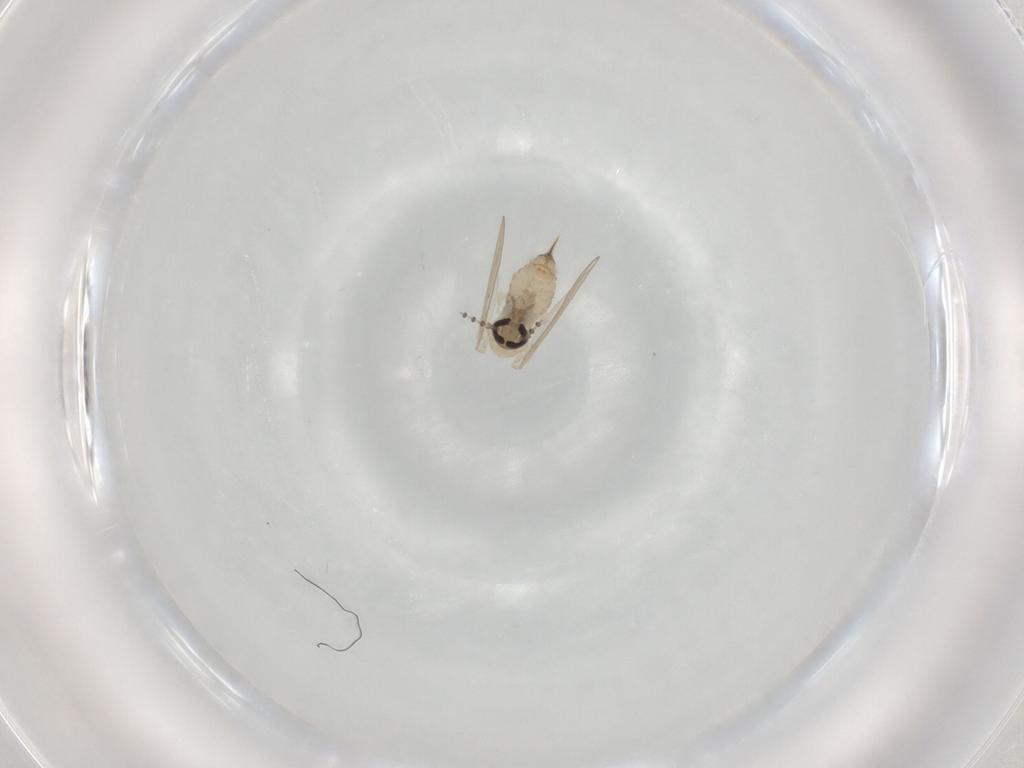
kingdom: Animalia
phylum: Arthropoda
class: Insecta
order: Diptera
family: Psychodidae
